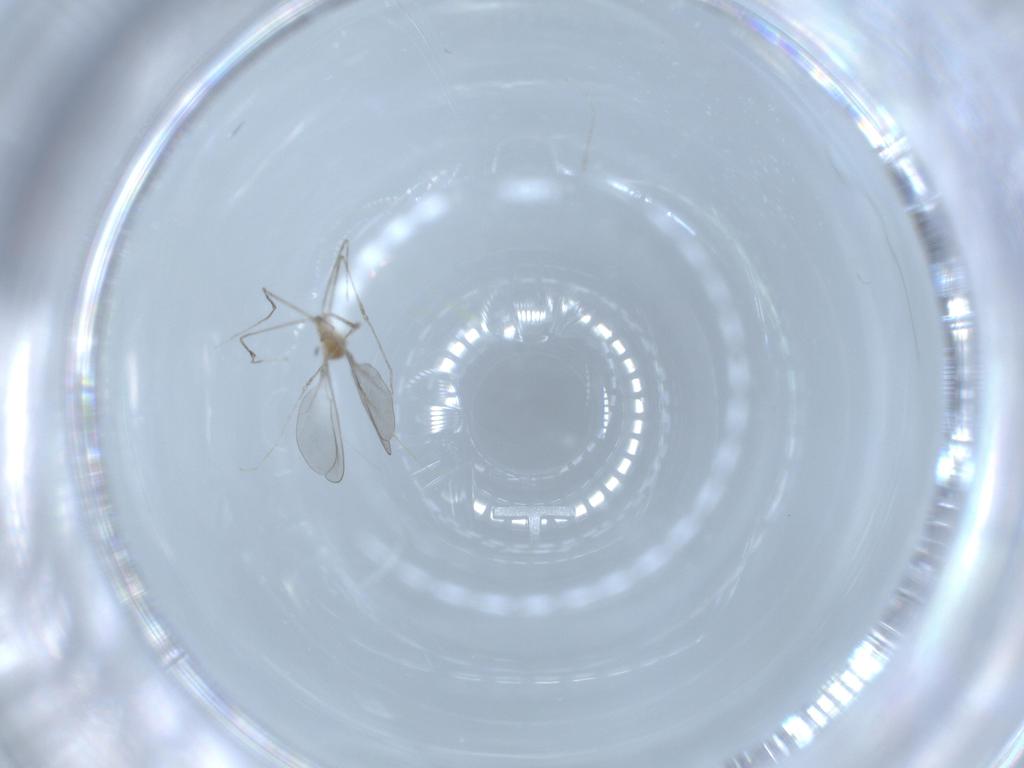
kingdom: Animalia
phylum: Arthropoda
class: Insecta
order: Diptera
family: Cecidomyiidae
